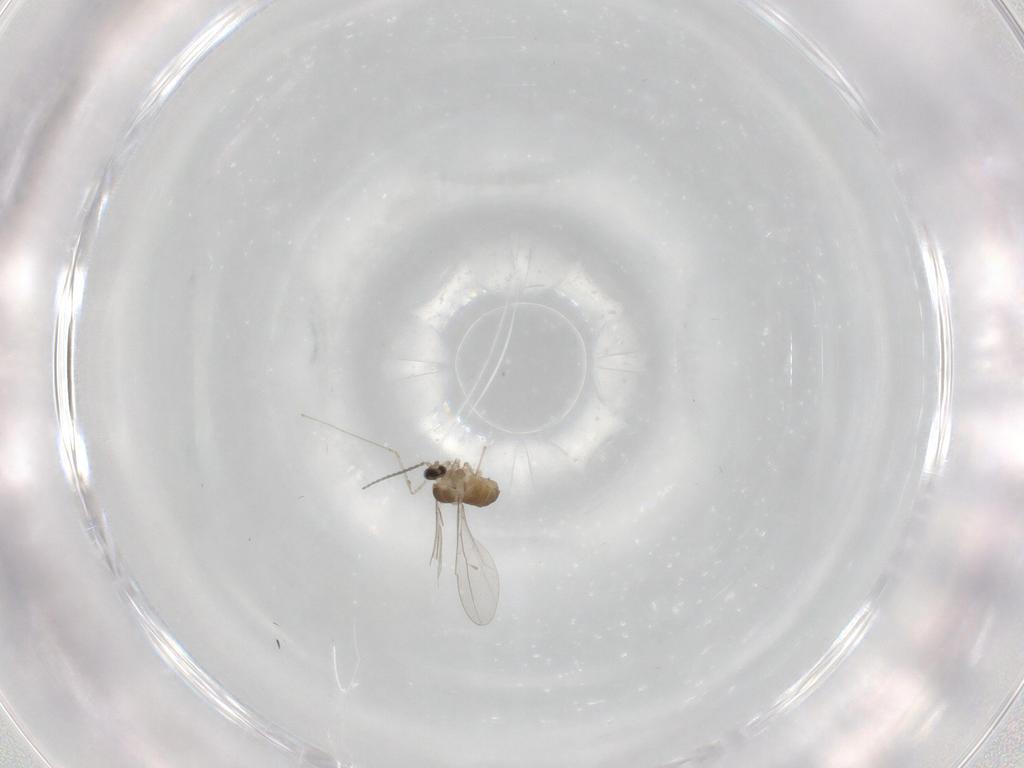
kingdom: Animalia
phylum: Arthropoda
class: Insecta
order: Diptera
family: Cecidomyiidae
